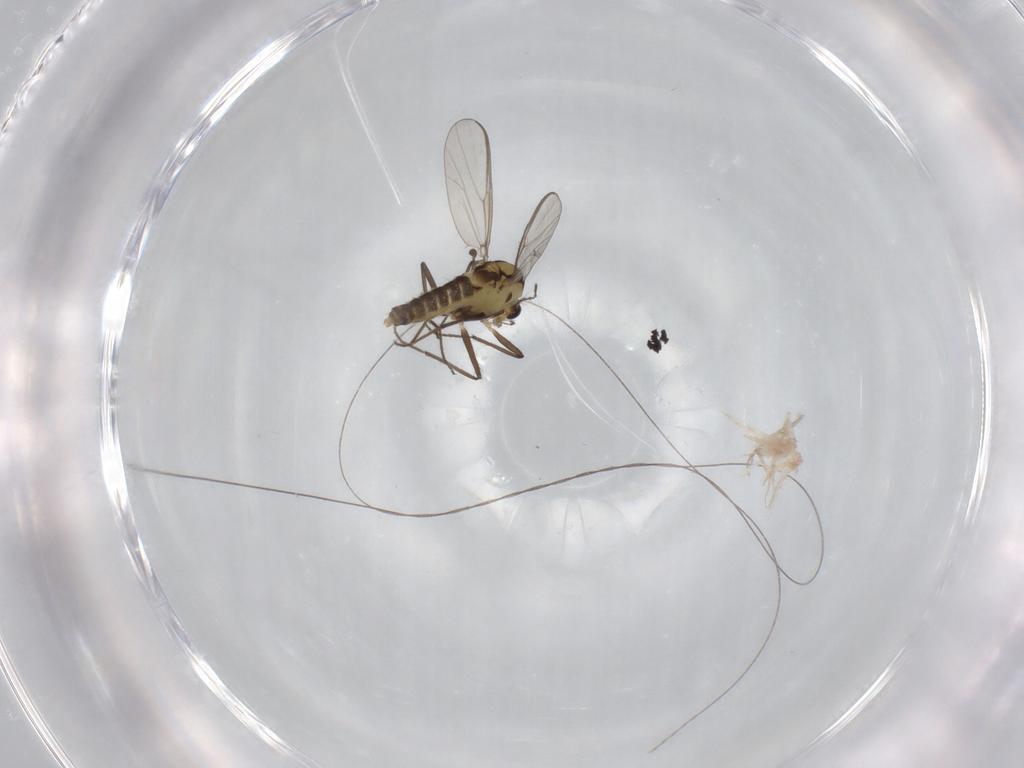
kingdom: Animalia
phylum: Arthropoda
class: Insecta
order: Diptera
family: Chironomidae
